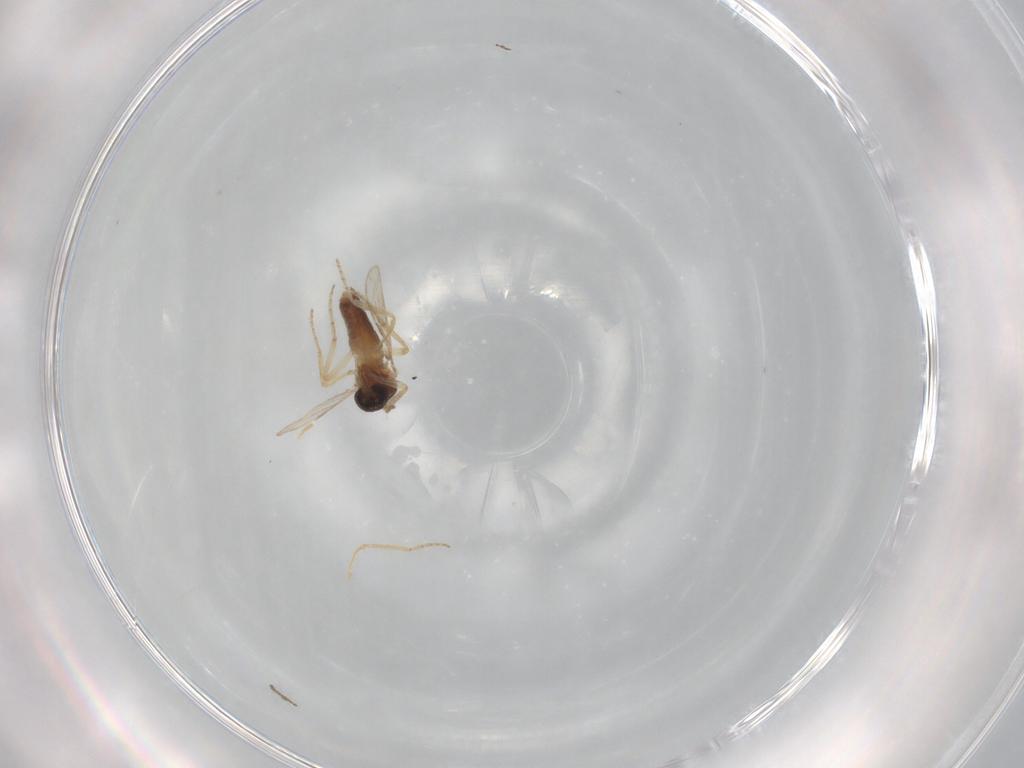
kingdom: Animalia
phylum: Arthropoda
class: Insecta
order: Diptera
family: Ceratopogonidae
